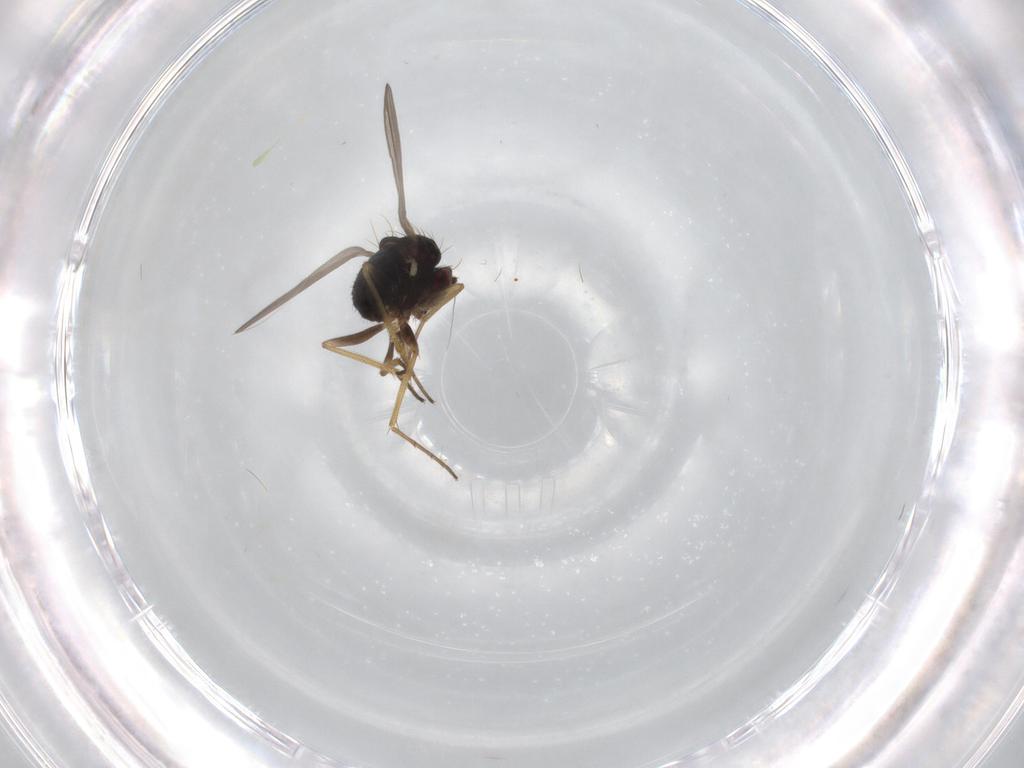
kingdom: Animalia
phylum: Arthropoda
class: Insecta
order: Diptera
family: Dolichopodidae
